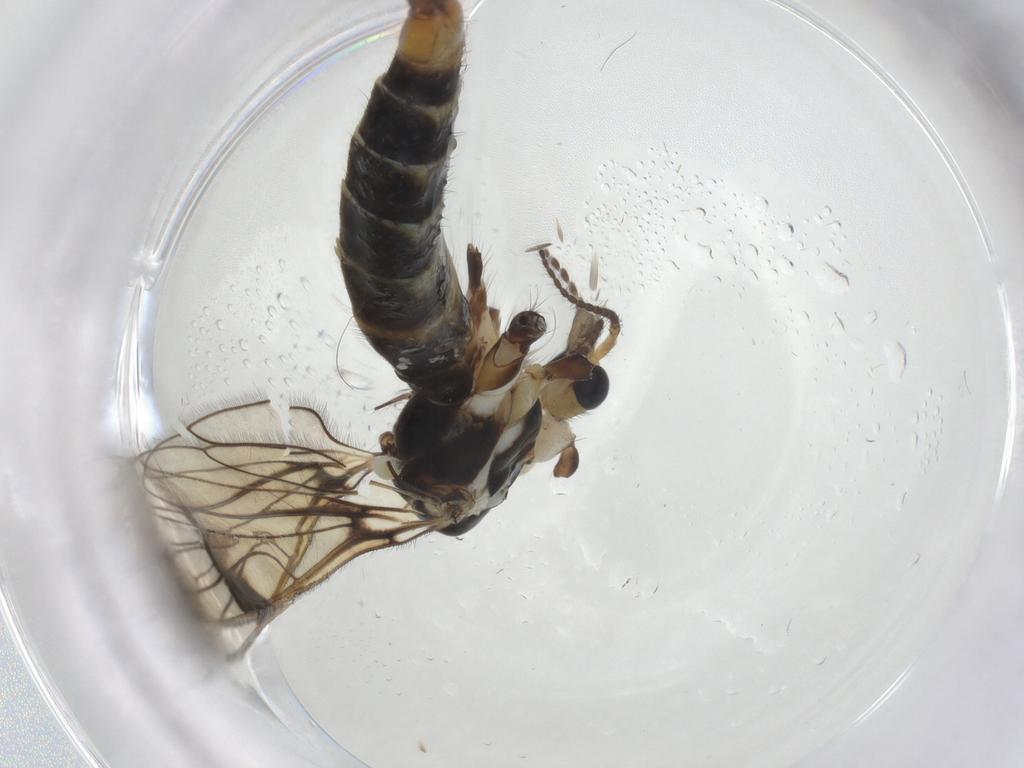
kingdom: Animalia
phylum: Arthropoda
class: Insecta
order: Diptera
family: Limoniidae
